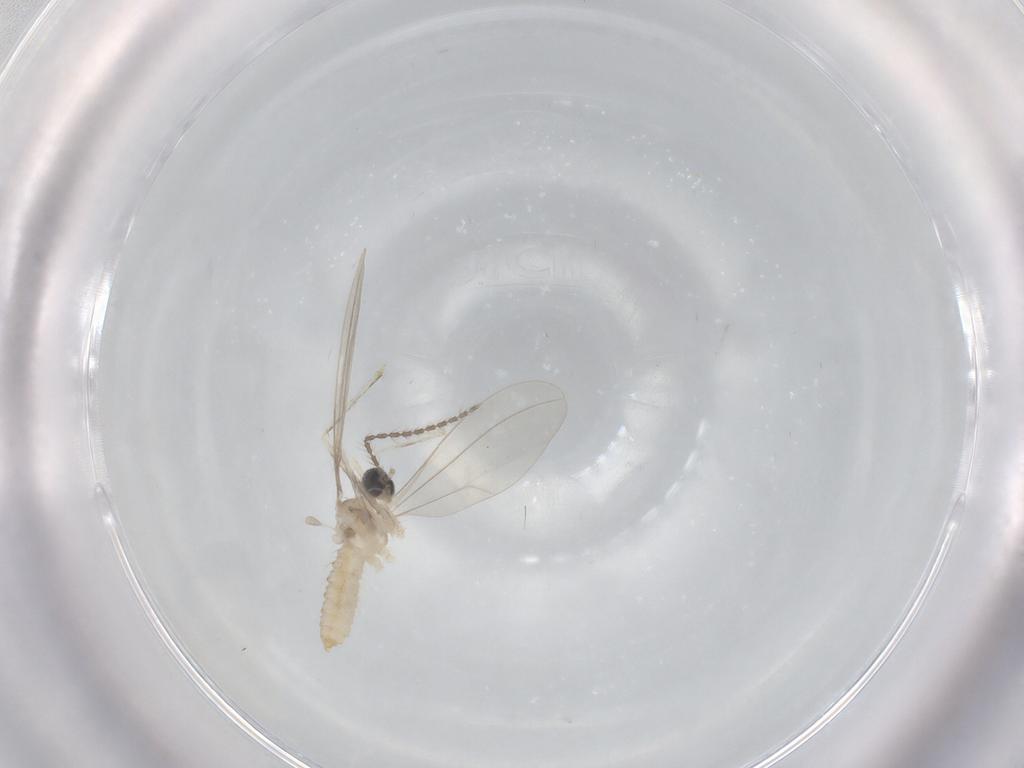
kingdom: Animalia
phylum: Arthropoda
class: Insecta
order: Diptera
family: Cecidomyiidae
